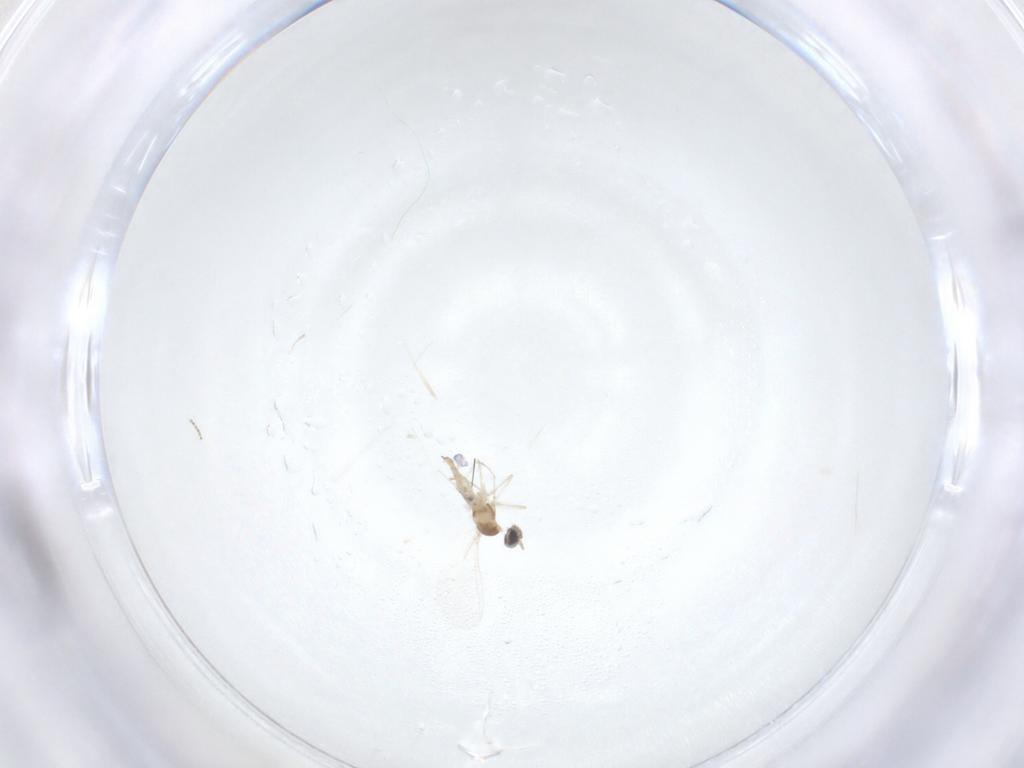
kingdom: Animalia
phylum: Arthropoda
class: Insecta
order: Diptera
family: Cecidomyiidae
